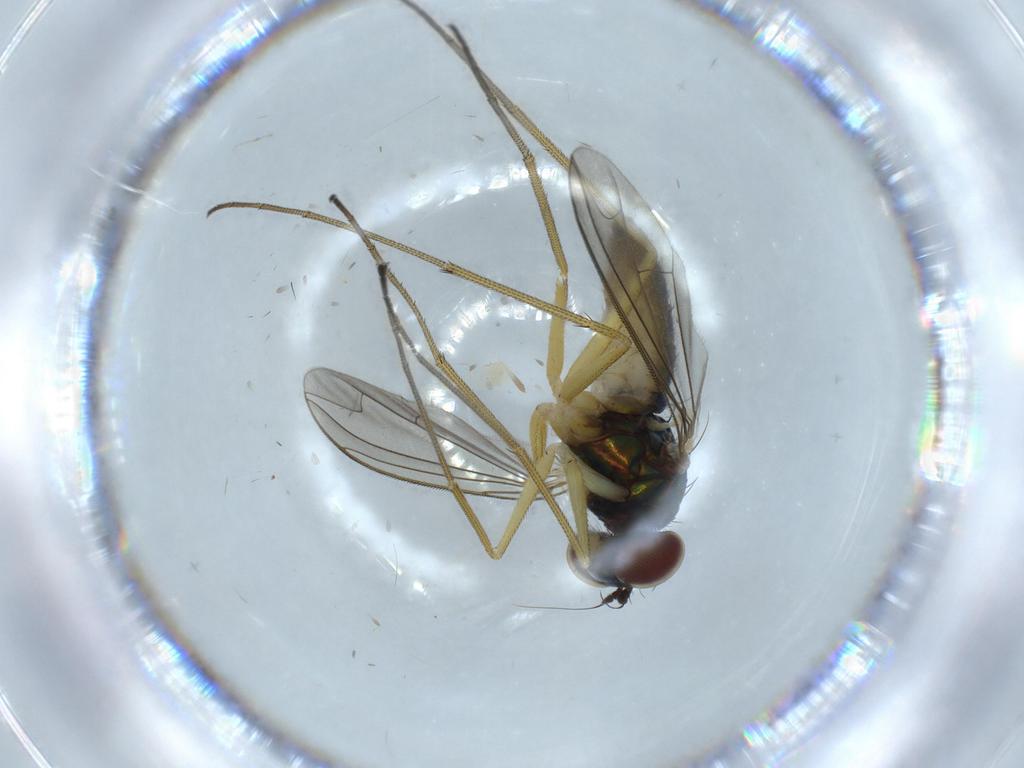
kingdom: Animalia
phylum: Arthropoda
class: Insecta
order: Diptera
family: Dolichopodidae
